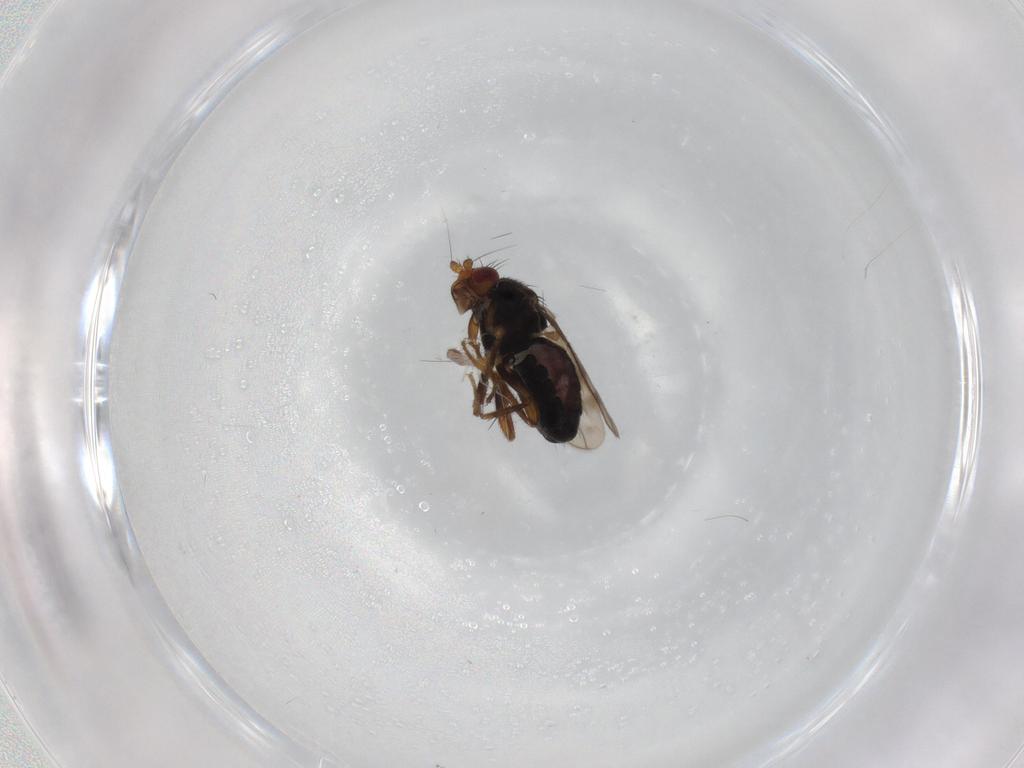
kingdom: Animalia
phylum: Arthropoda
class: Insecta
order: Diptera
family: Sphaeroceridae
